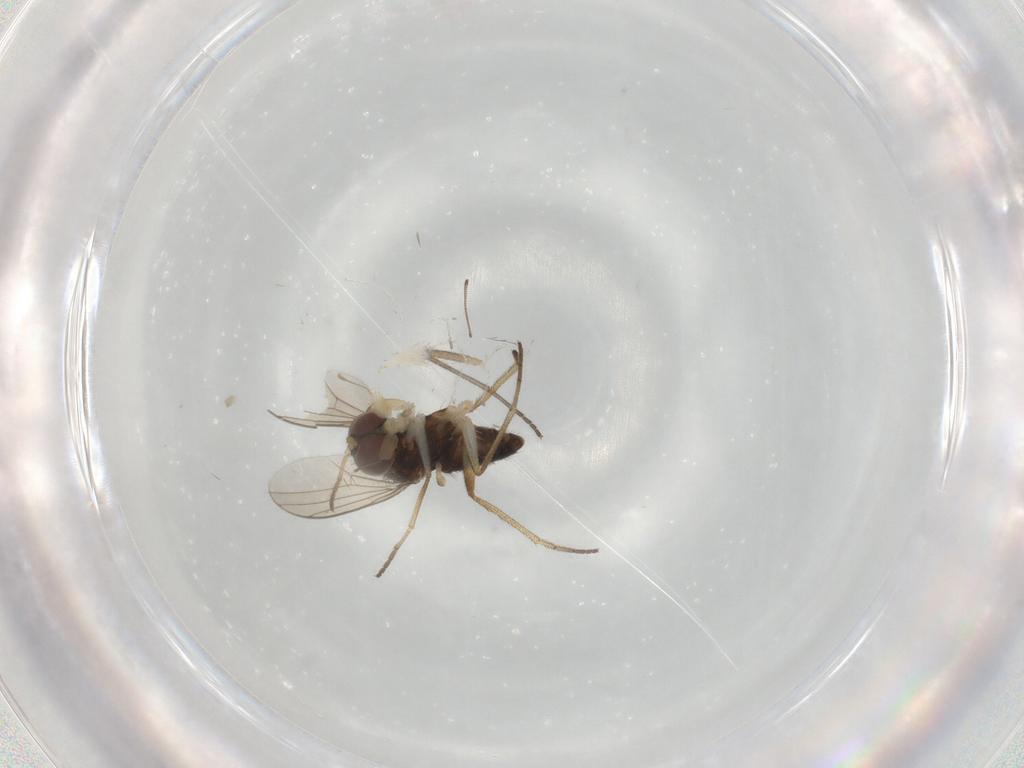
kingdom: Animalia
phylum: Arthropoda
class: Insecta
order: Diptera
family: Dolichopodidae
